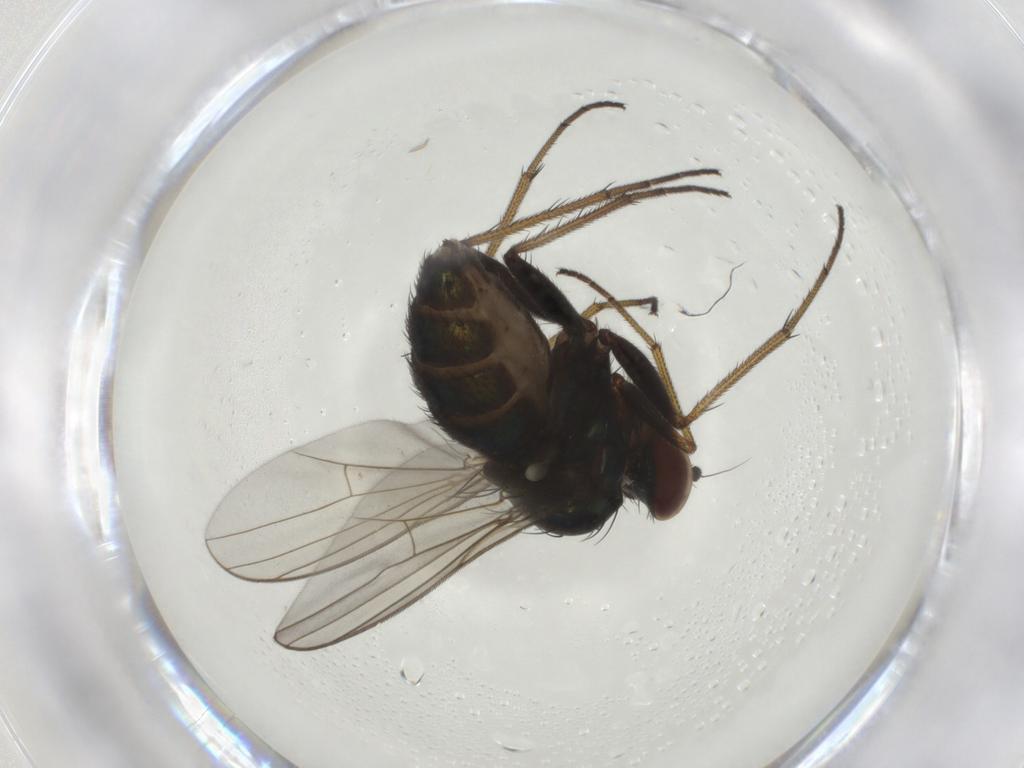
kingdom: Animalia
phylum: Arthropoda
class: Insecta
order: Diptera
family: Dolichopodidae
